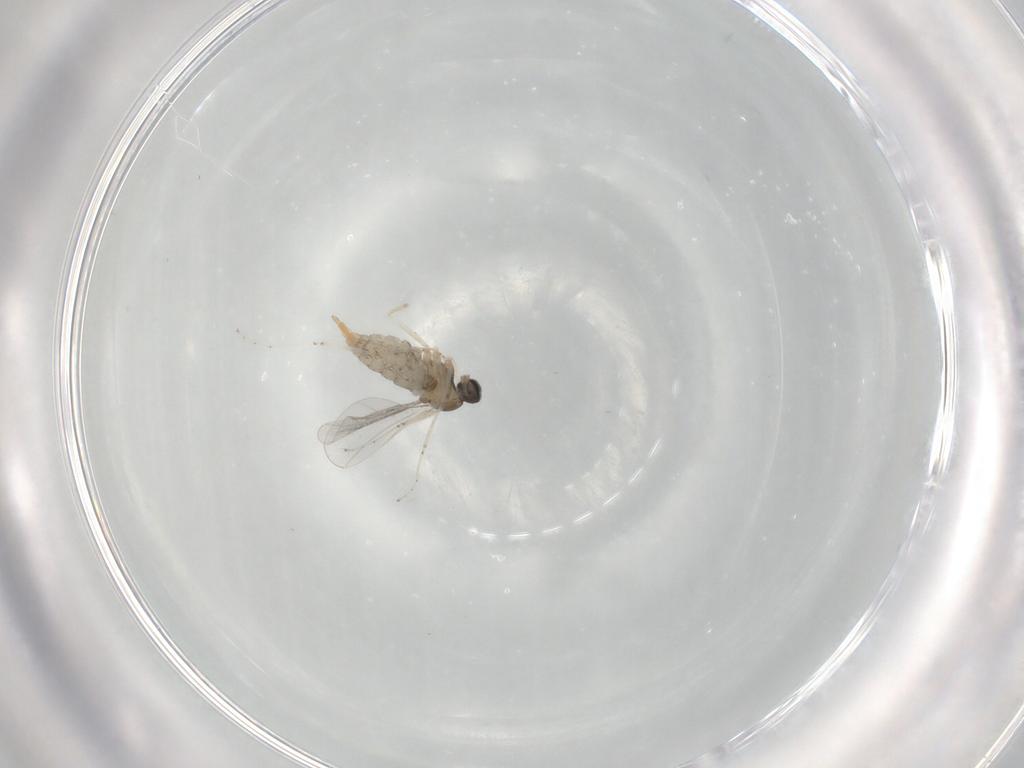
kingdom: Animalia
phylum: Arthropoda
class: Insecta
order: Diptera
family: Cecidomyiidae
